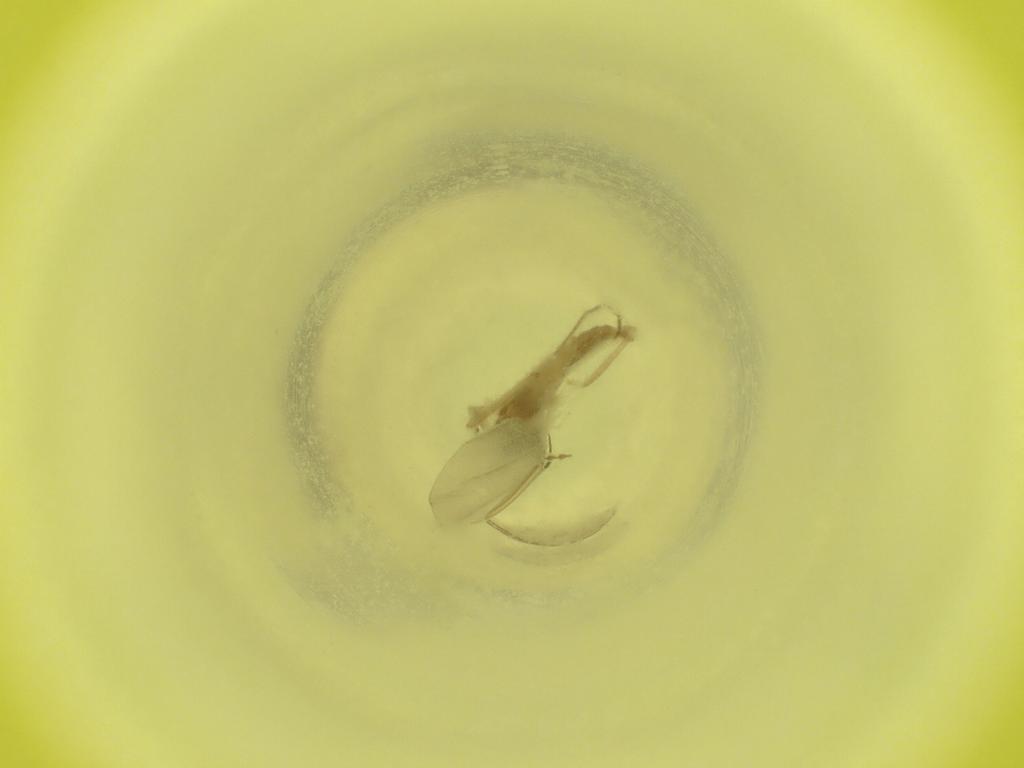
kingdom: Animalia
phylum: Arthropoda
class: Insecta
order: Diptera
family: Cecidomyiidae
